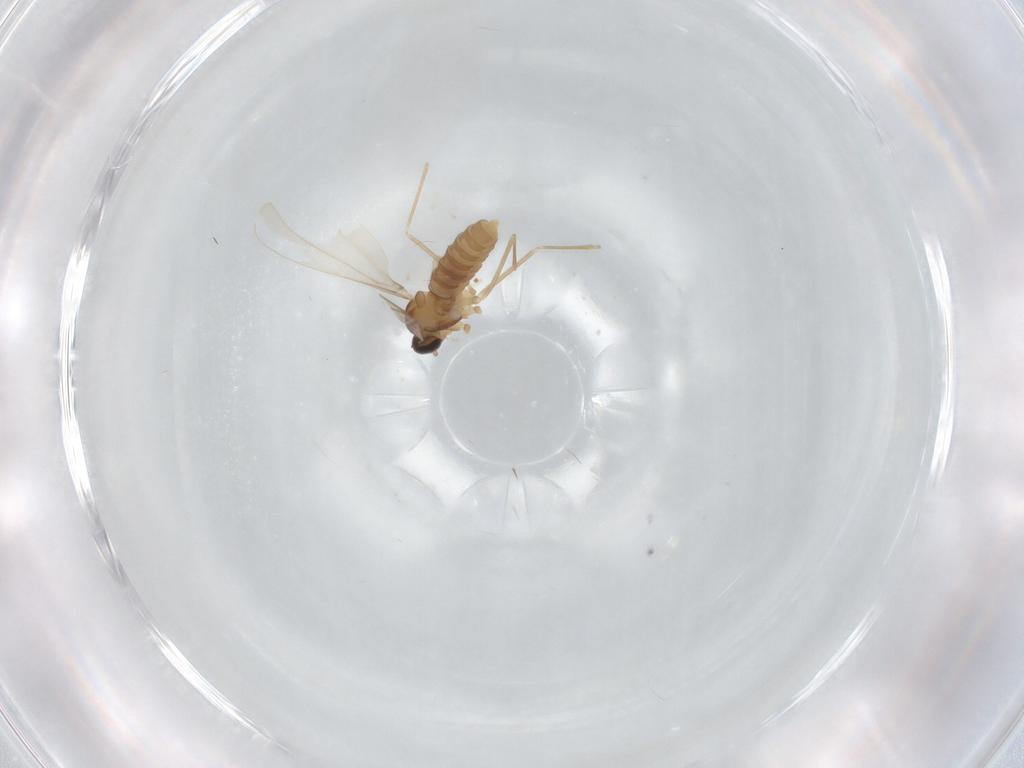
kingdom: Animalia
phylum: Arthropoda
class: Insecta
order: Diptera
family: Cecidomyiidae
